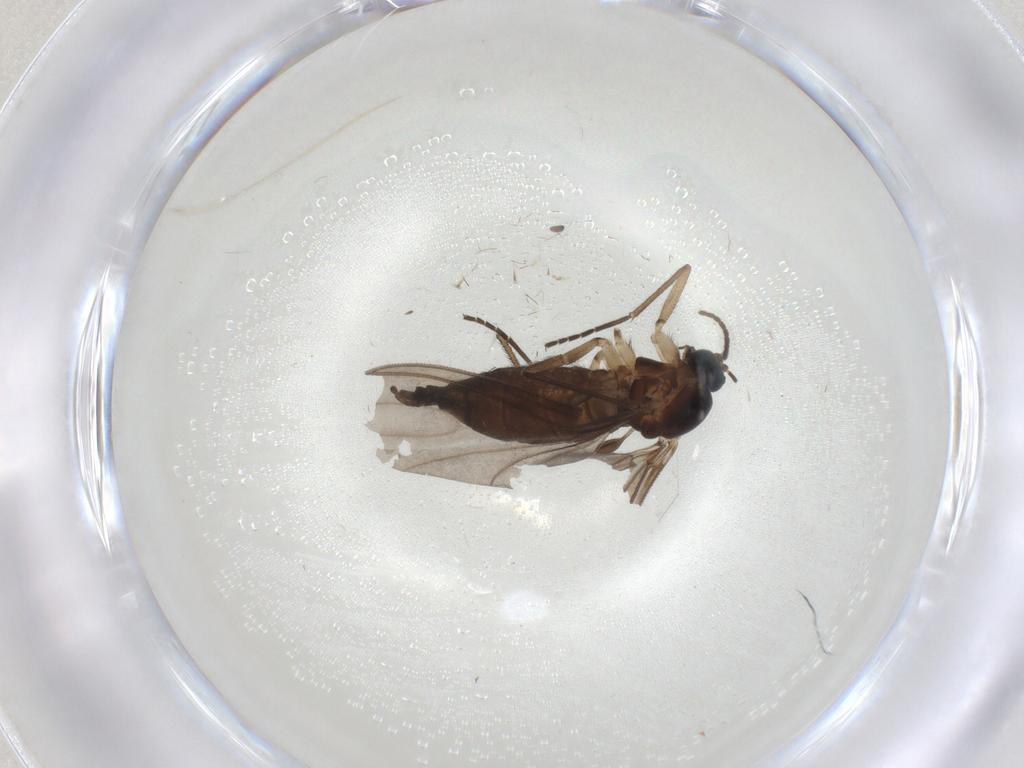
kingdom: Animalia
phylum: Arthropoda
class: Insecta
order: Diptera
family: Sciaridae
